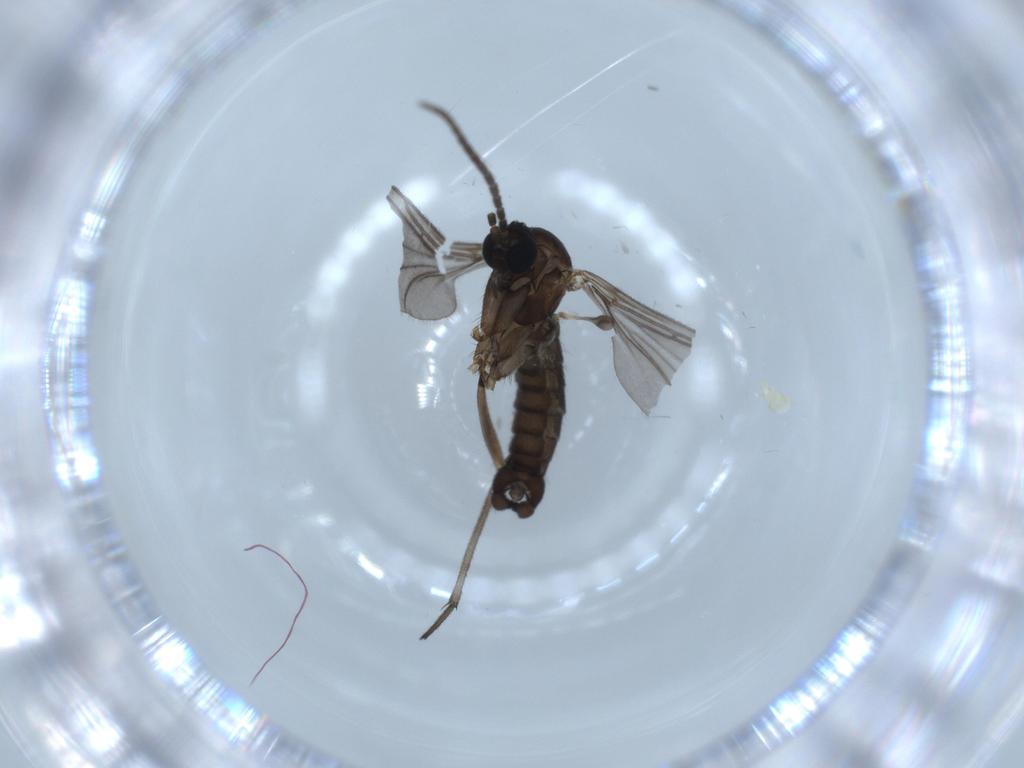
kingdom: Animalia
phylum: Arthropoda
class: Insecta
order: Diptera
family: Sciaridae
